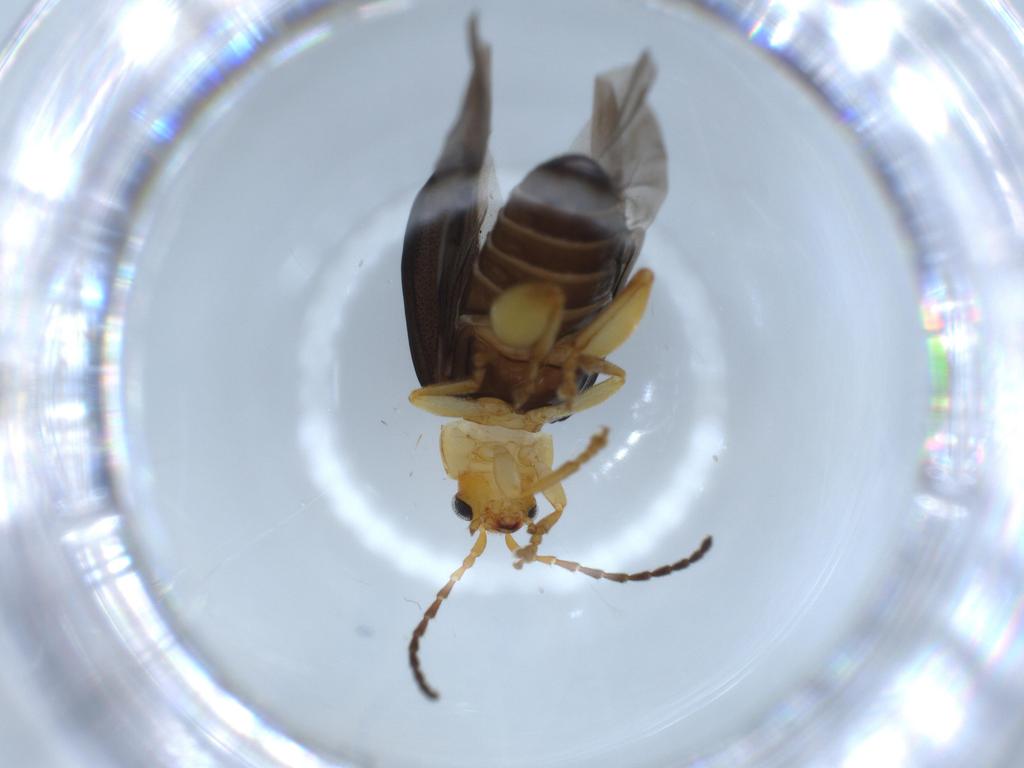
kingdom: Animalia
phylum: Arthropoda
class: Insecta
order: Coleoptera
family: Chrysomelidae
